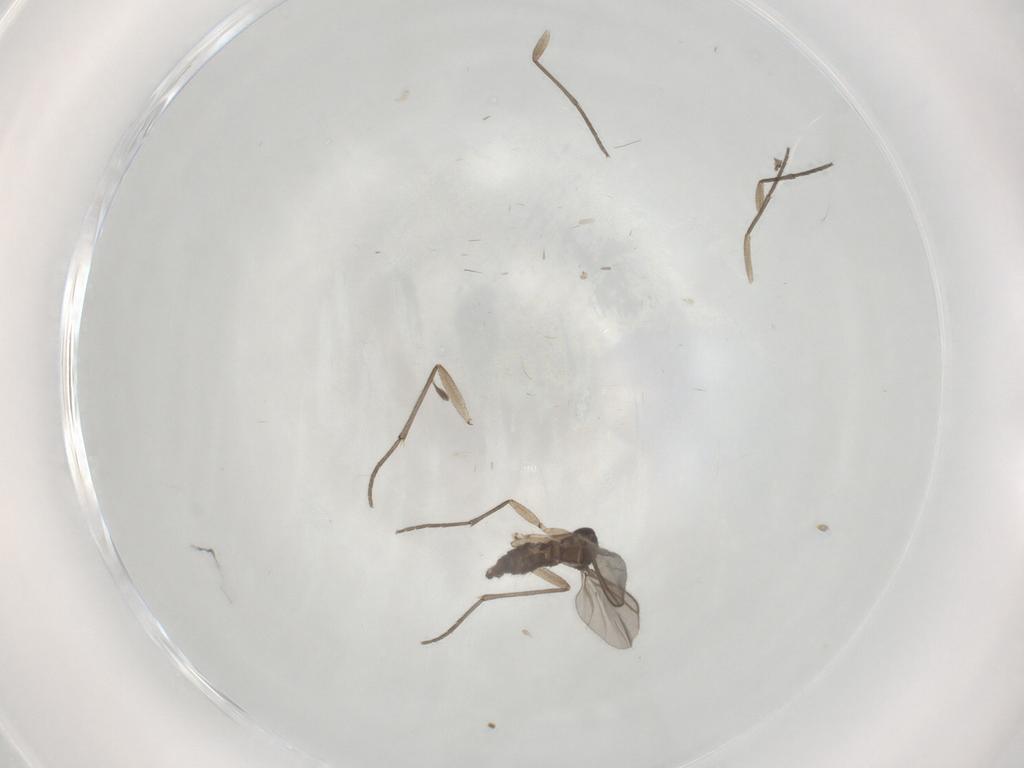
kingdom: Animalia
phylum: Arthropoda
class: Insecta
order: Diptera
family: Sciaridae
